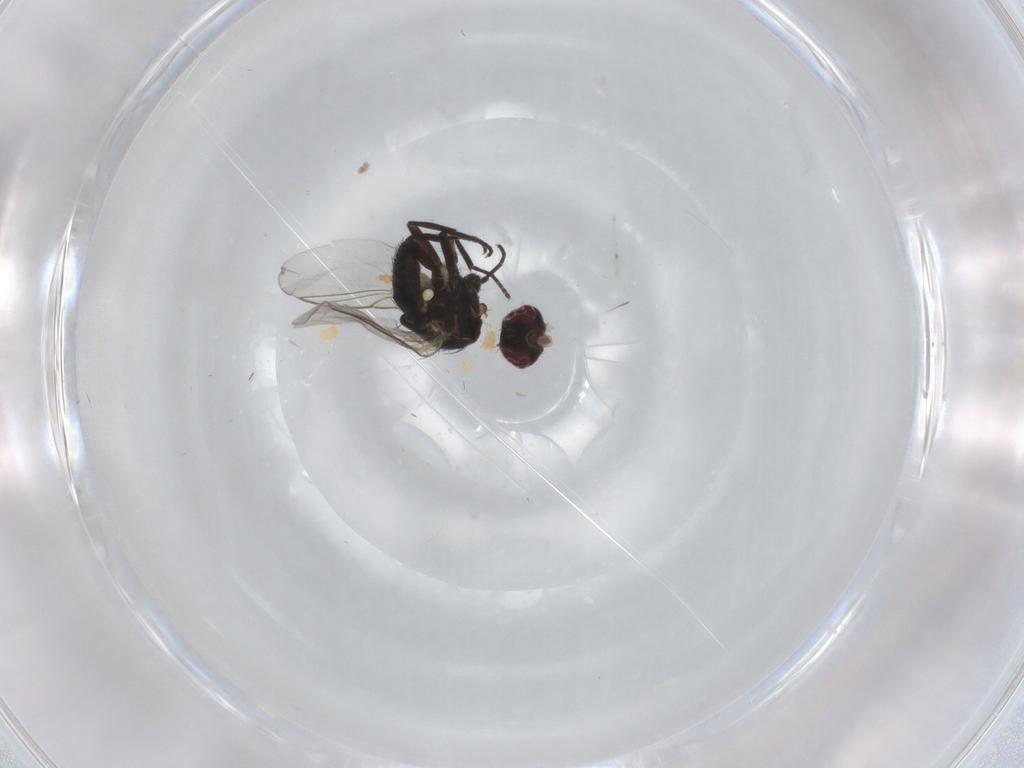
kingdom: Animalia
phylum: Arthropoda
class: Insecta
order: Diptera
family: Agromyzidae
